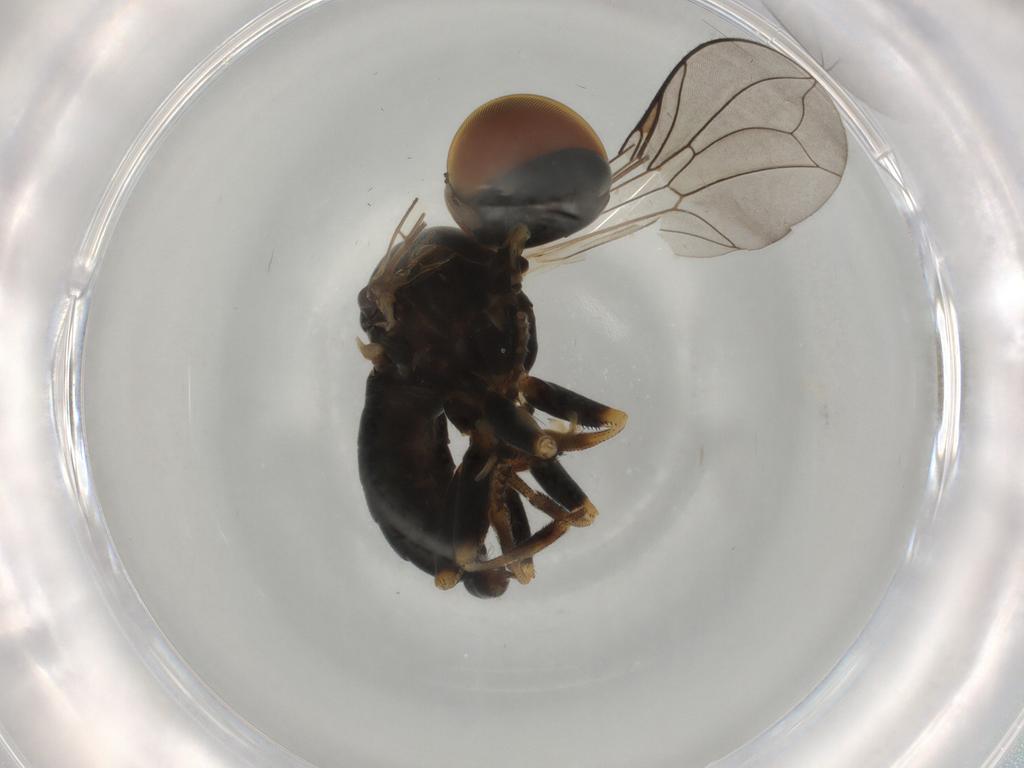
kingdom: Animalia
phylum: Arthropoda
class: Insecta
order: Diptera
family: Pipunculidae
